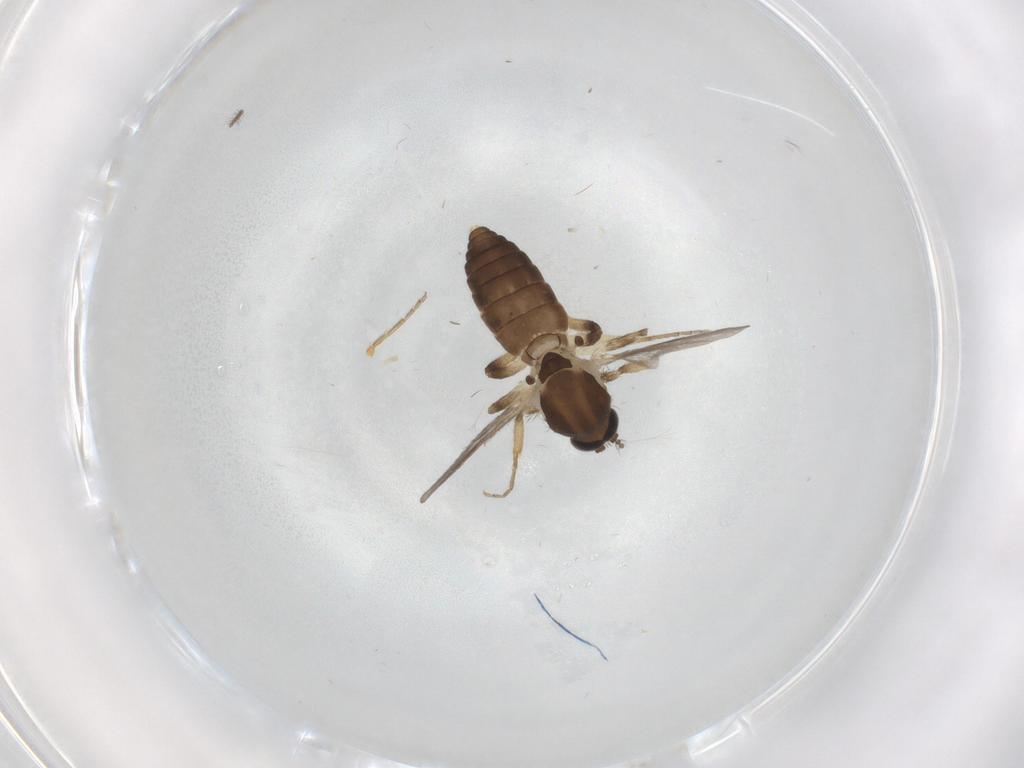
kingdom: Animalia
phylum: Arthropoda
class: Insecta
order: Diptera
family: Dolichopodidae
